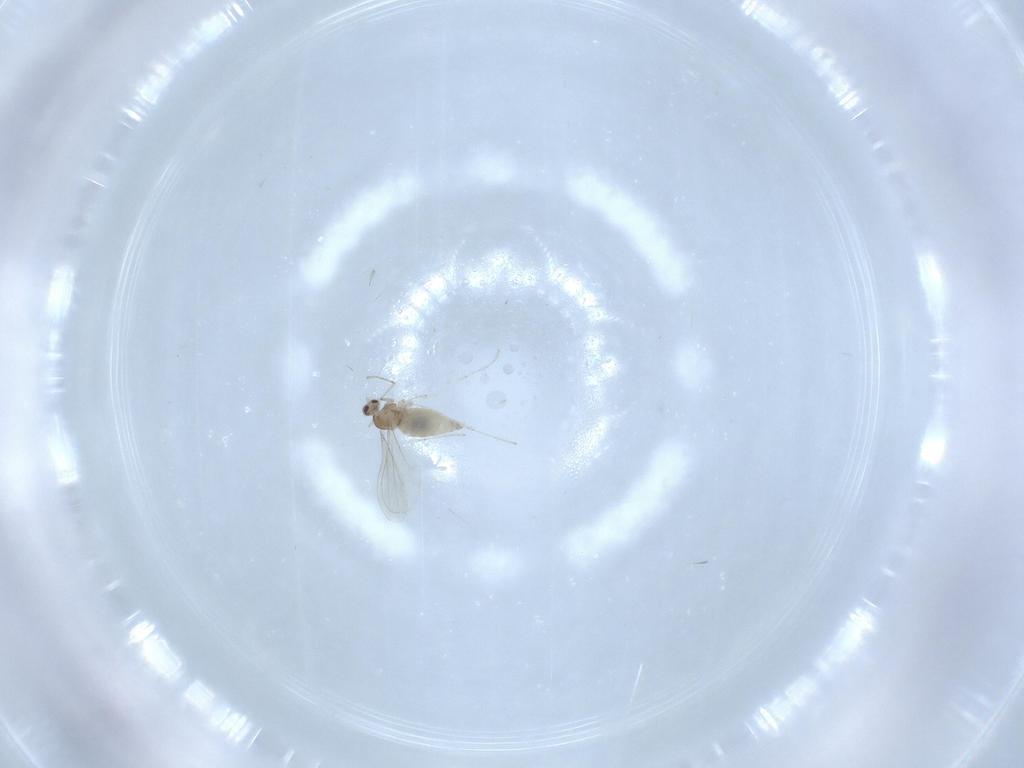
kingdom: Animalia
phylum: Arthropoda
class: Insecta
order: Diptera
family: Cecidomyiidae
